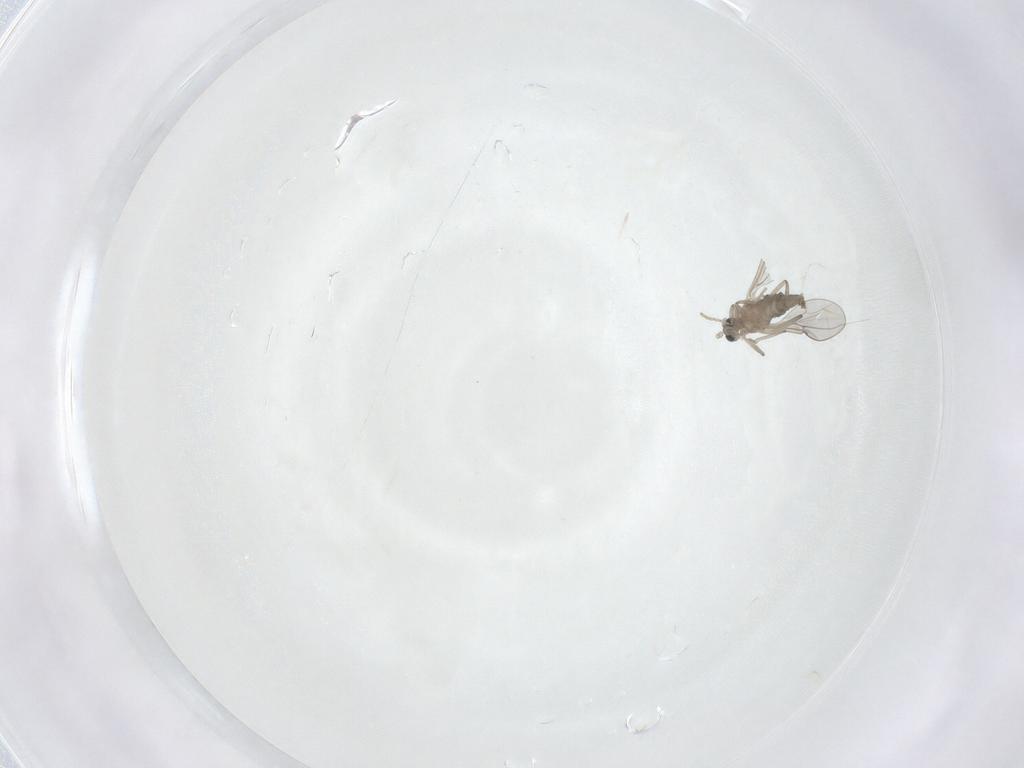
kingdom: Animalia
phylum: Arthropoda
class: Insecta
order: Diptera
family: Cecidomyiidae
